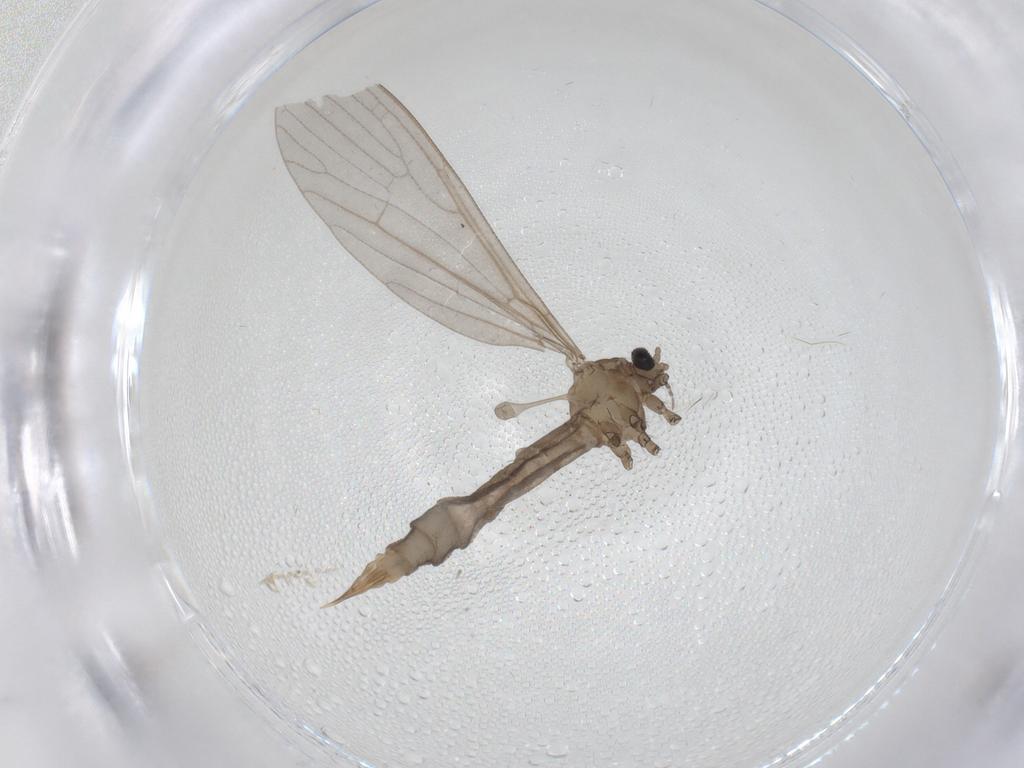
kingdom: Animalia
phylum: Arthropoda
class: Insecta
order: Diptera
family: Limoniidae
